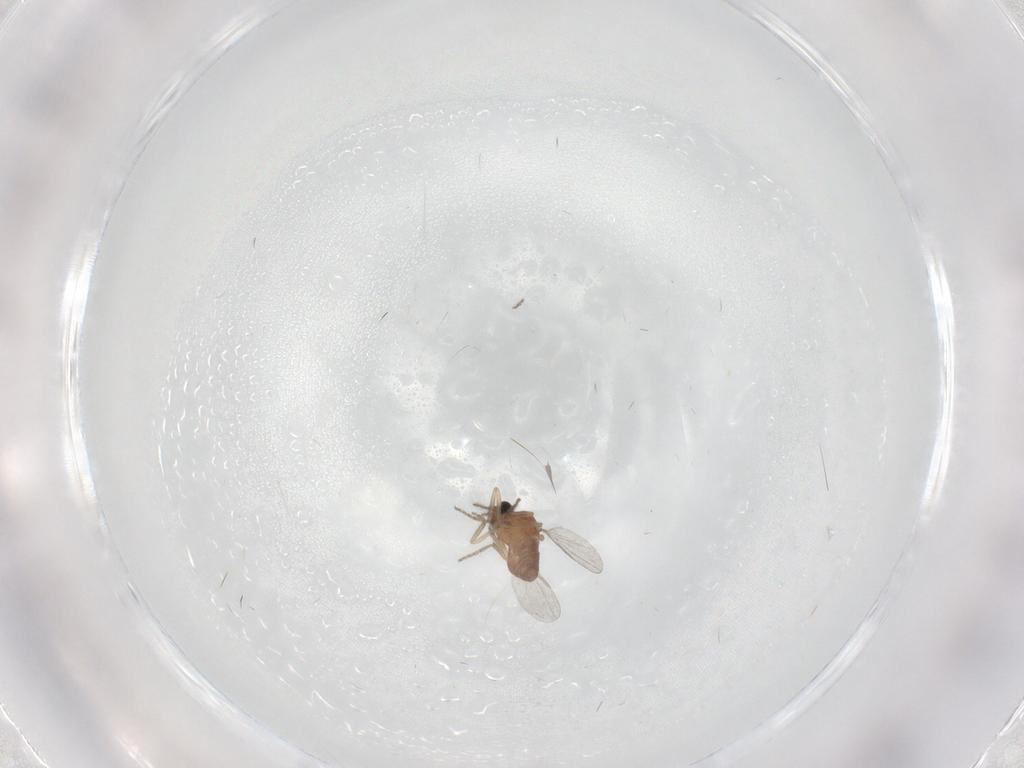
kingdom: Animalia
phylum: Arthropoda
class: Insecta
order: Diptera
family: Ceratopogonidae
